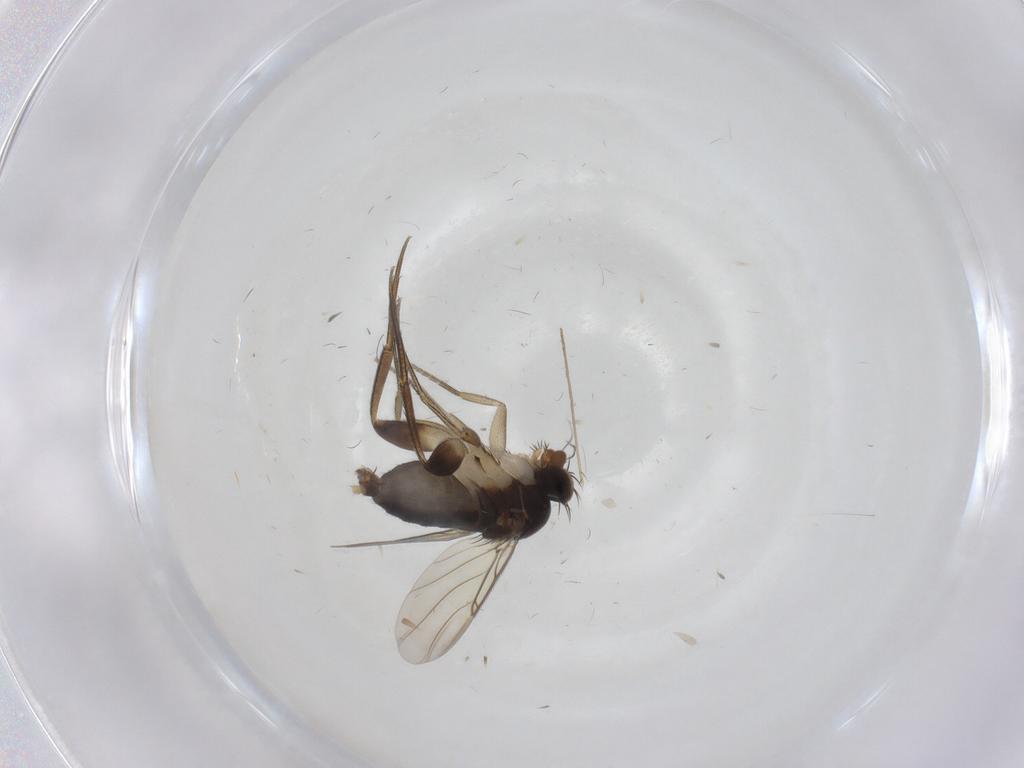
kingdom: Animalia
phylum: Arthropoda
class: Insecta
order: Diptera
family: Phoridae
